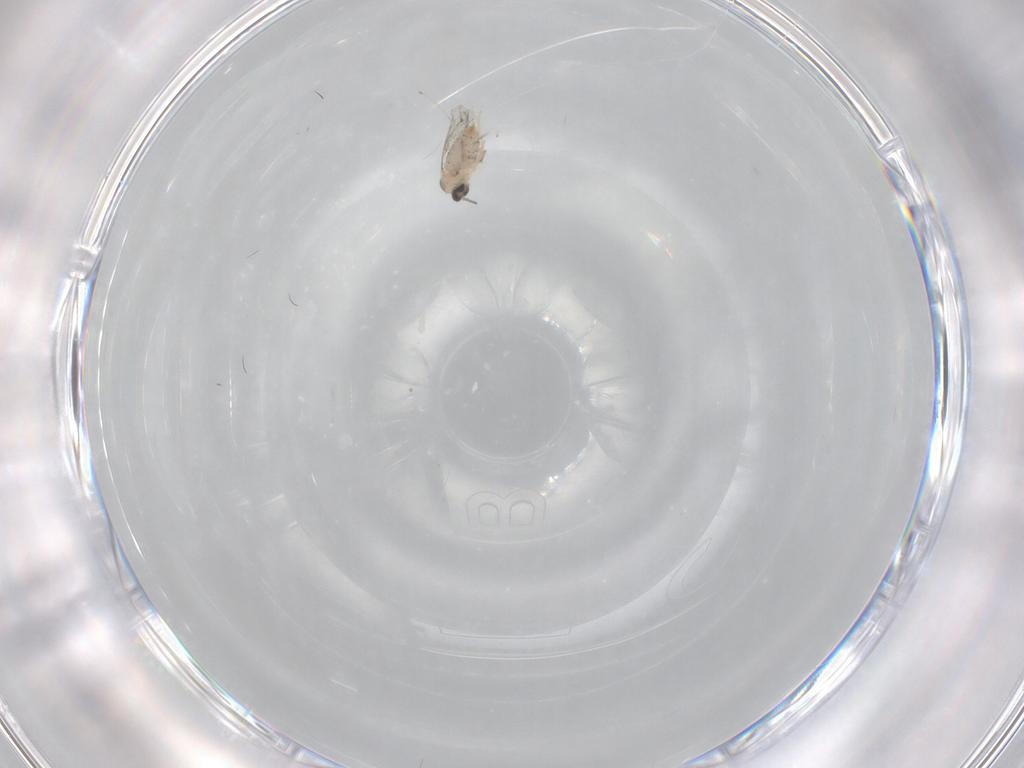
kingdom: Animalia
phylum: Arthropoda
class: Insecta
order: Diptera
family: Cecidomyiidae
